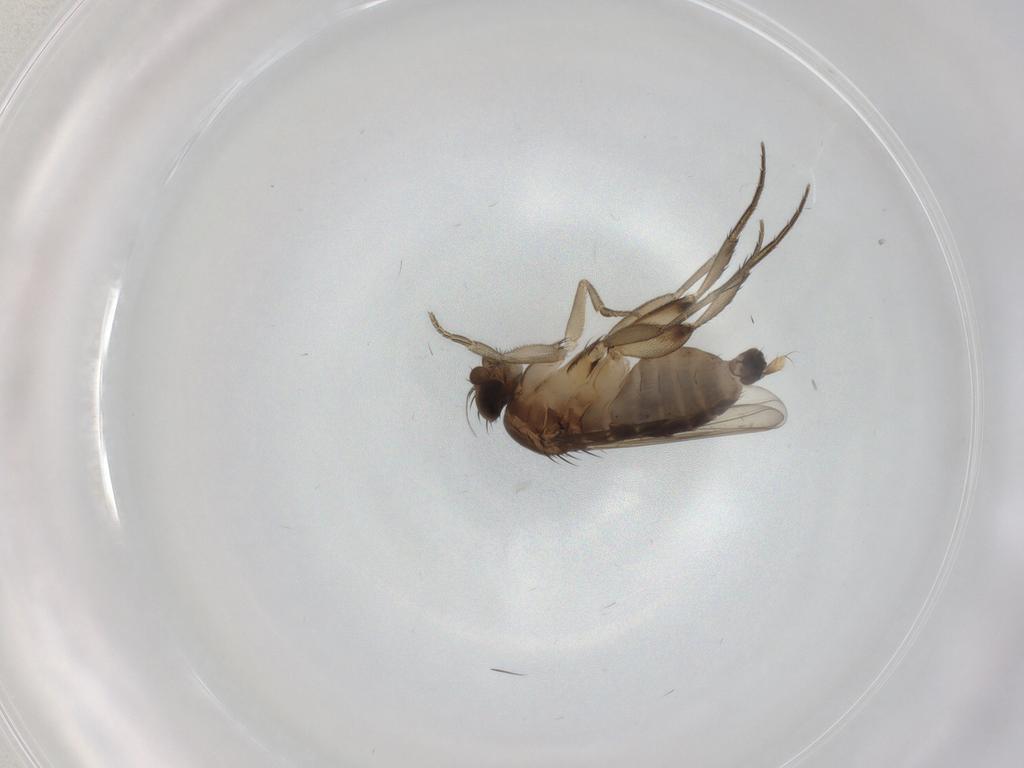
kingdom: Animalia
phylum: Arthropoda
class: Insecta
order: Diptera
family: Phoridae
